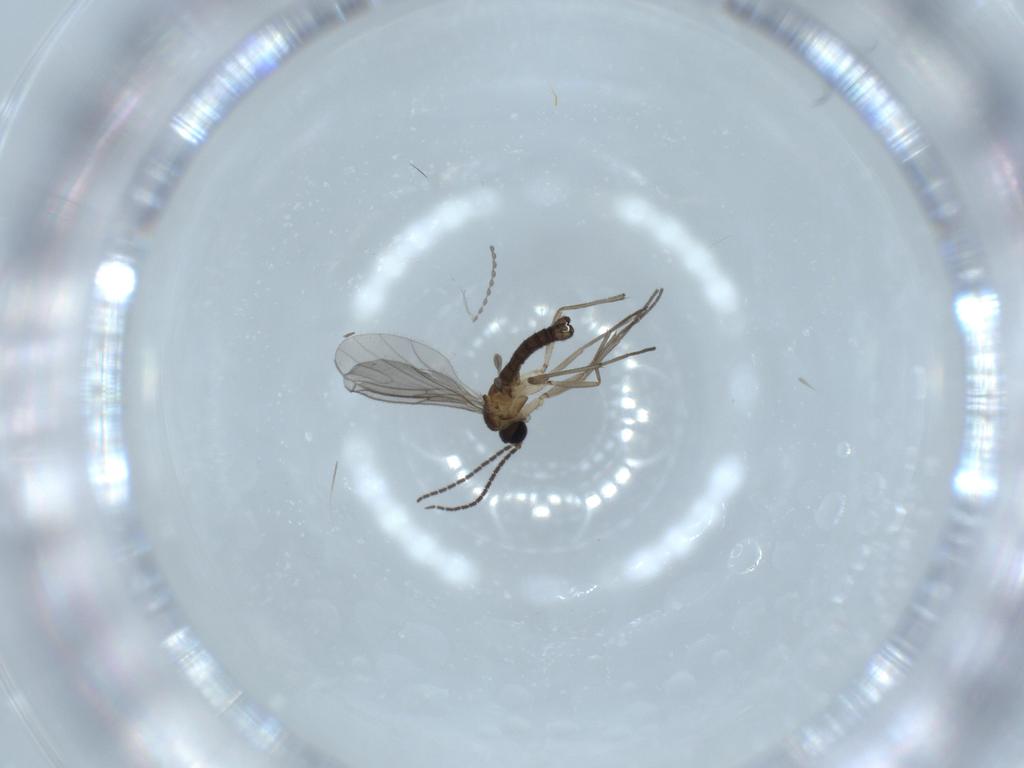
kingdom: Animalia
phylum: Arthropoda
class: Insecta
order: Diptera
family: Sciaridae
